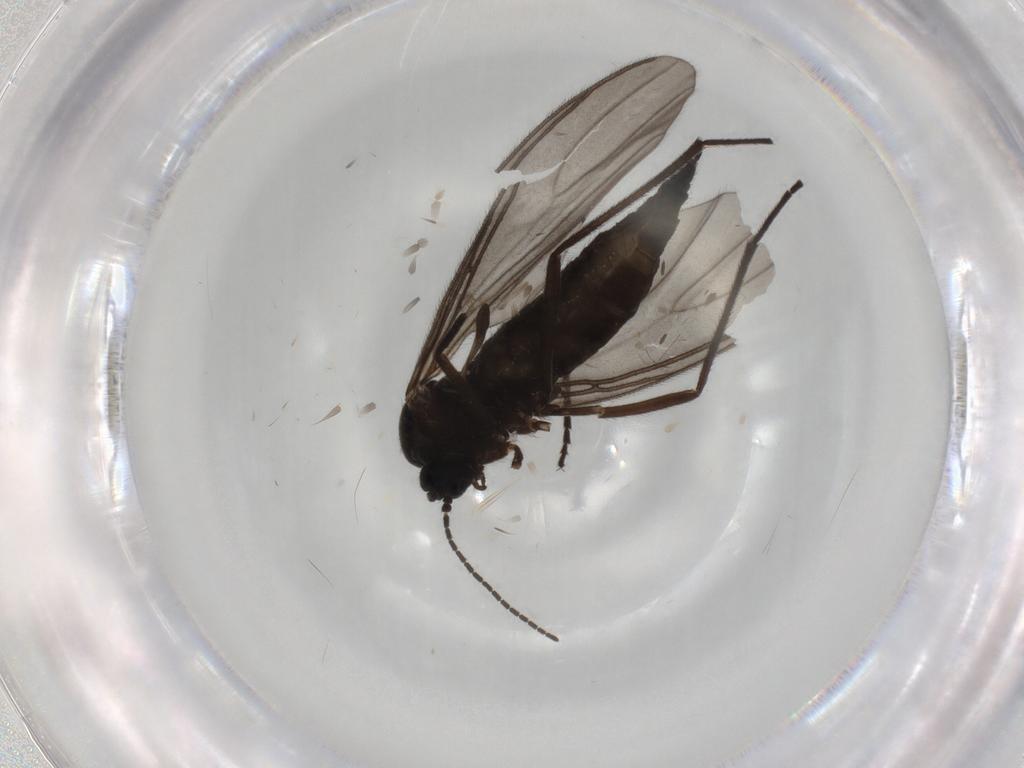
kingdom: Animalia
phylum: Arthropoda
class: Insecta
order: Diptera
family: Sciaridae
